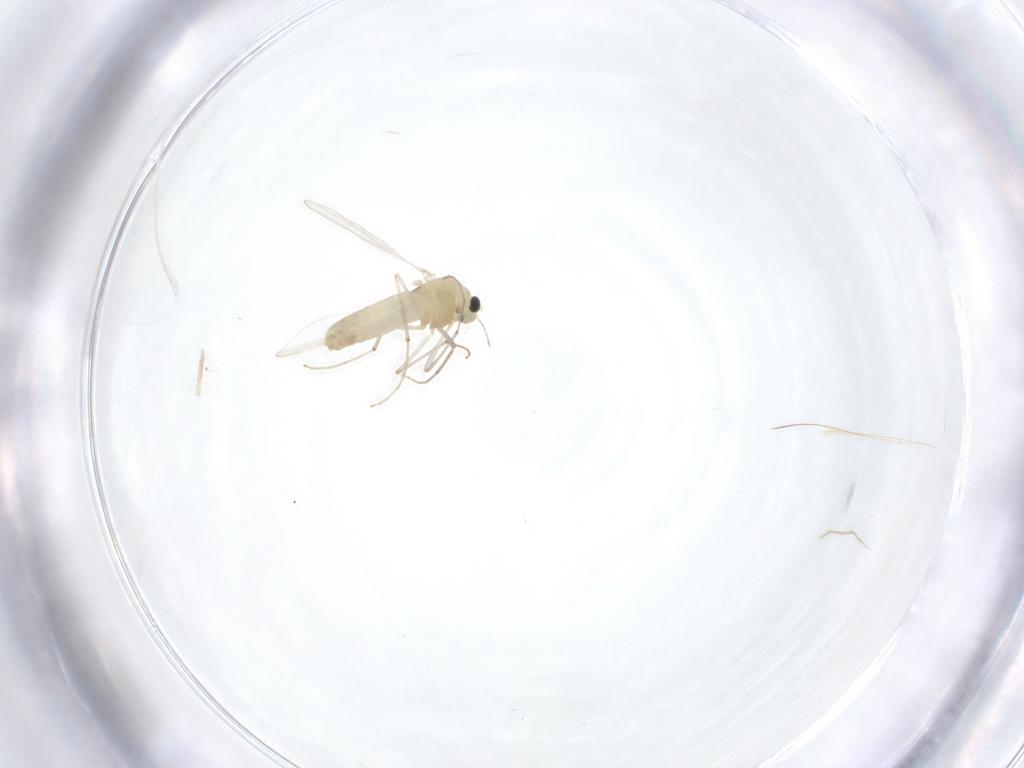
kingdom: Animalia
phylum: Arthropoda
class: Insecta
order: Diptera
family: Chironomidae
